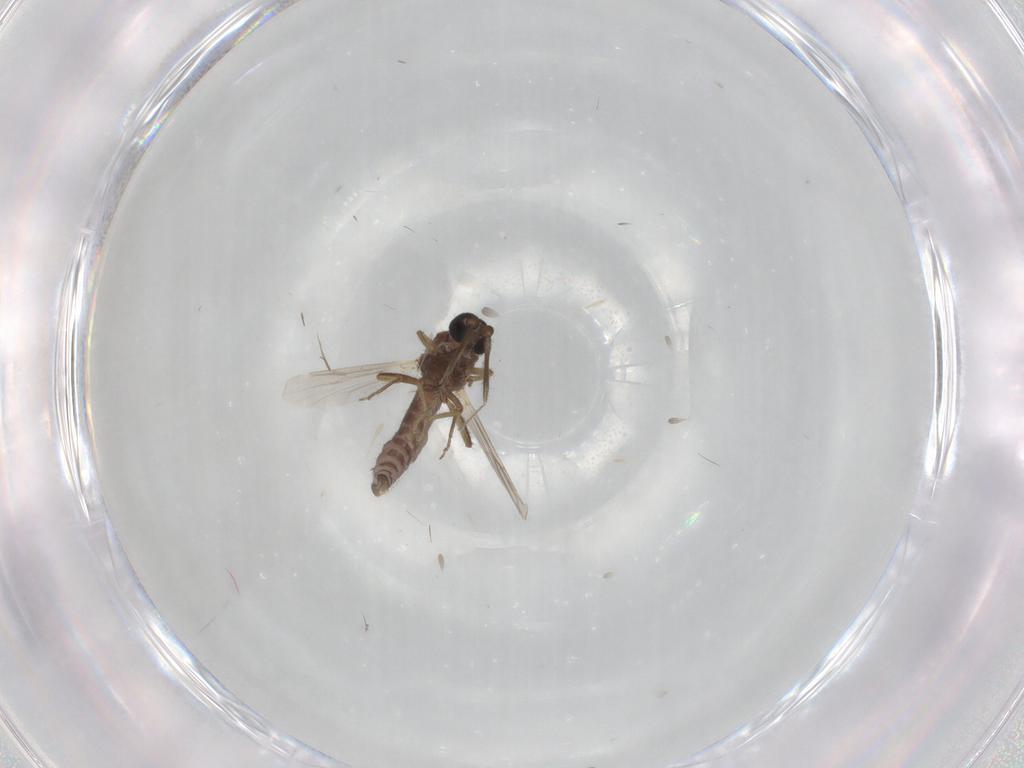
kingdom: Animalia
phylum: Arthropoda
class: Insecta
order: Diptera
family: Ceratopogonidae
